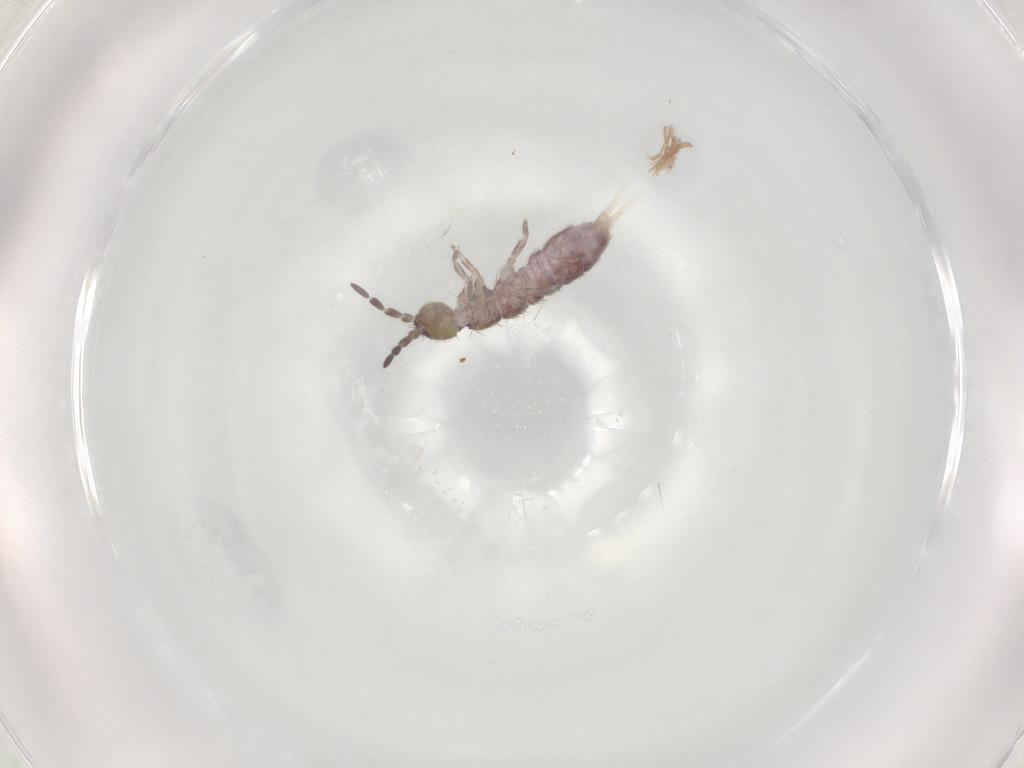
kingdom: Animalia
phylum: Arthropoda
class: Collembola
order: Entomobryomorpha
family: Isotomidae
